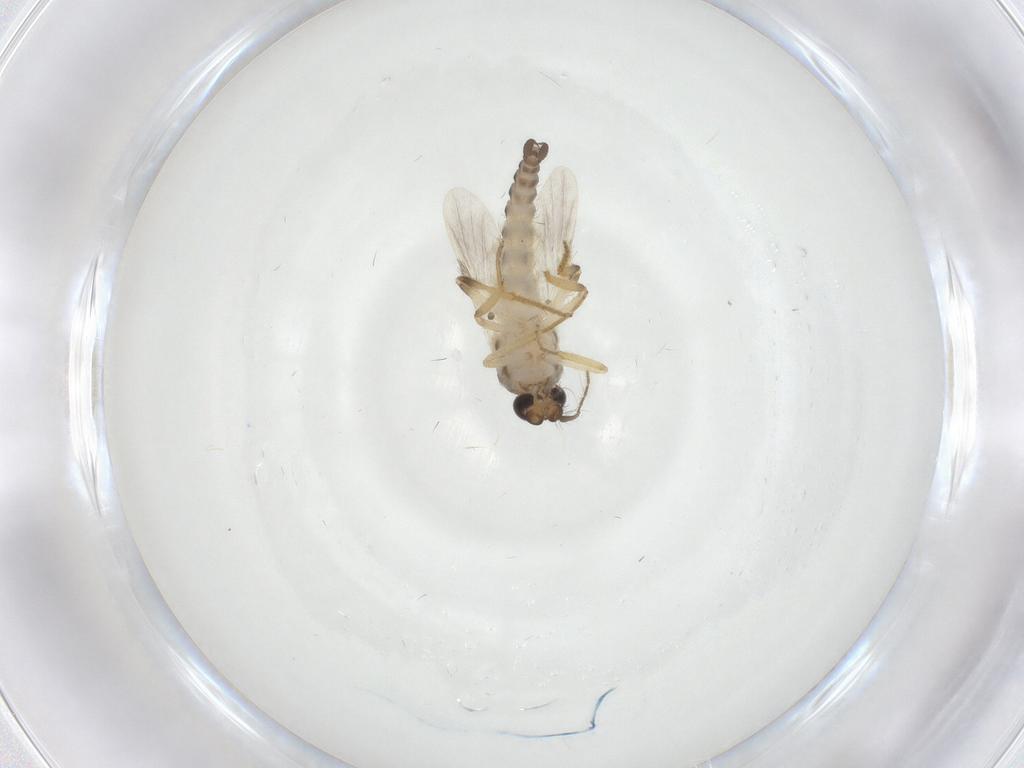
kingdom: Animalia
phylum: Arthropoda
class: Insecta
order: Diptera
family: Ceratopogonidae
